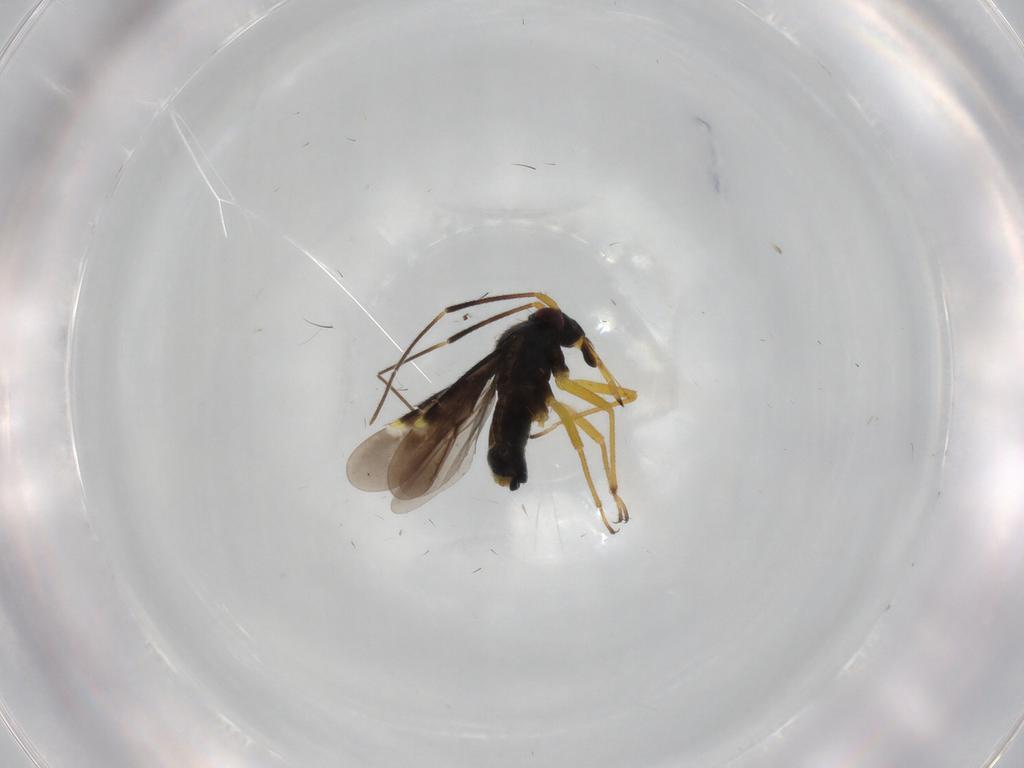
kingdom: Animalia
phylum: Arthropoda
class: Insecta
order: Hemiptera
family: Miridae
